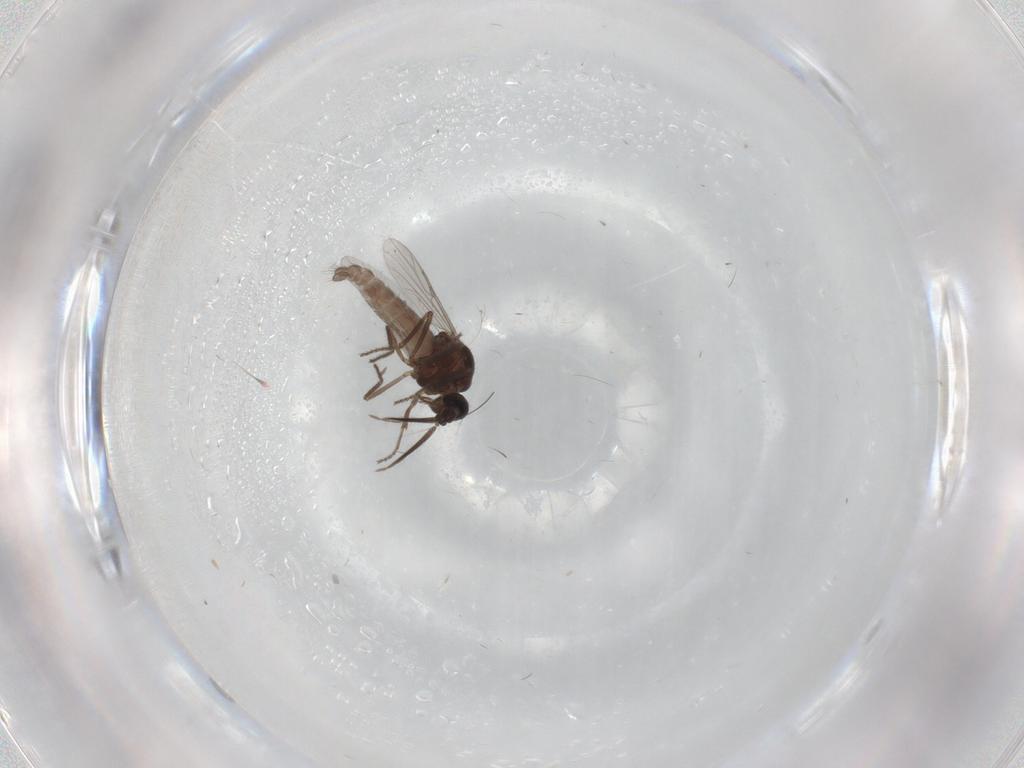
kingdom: Animalia
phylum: Arthropoda
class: Insecta
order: Diptera
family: Ceratopogonidae
